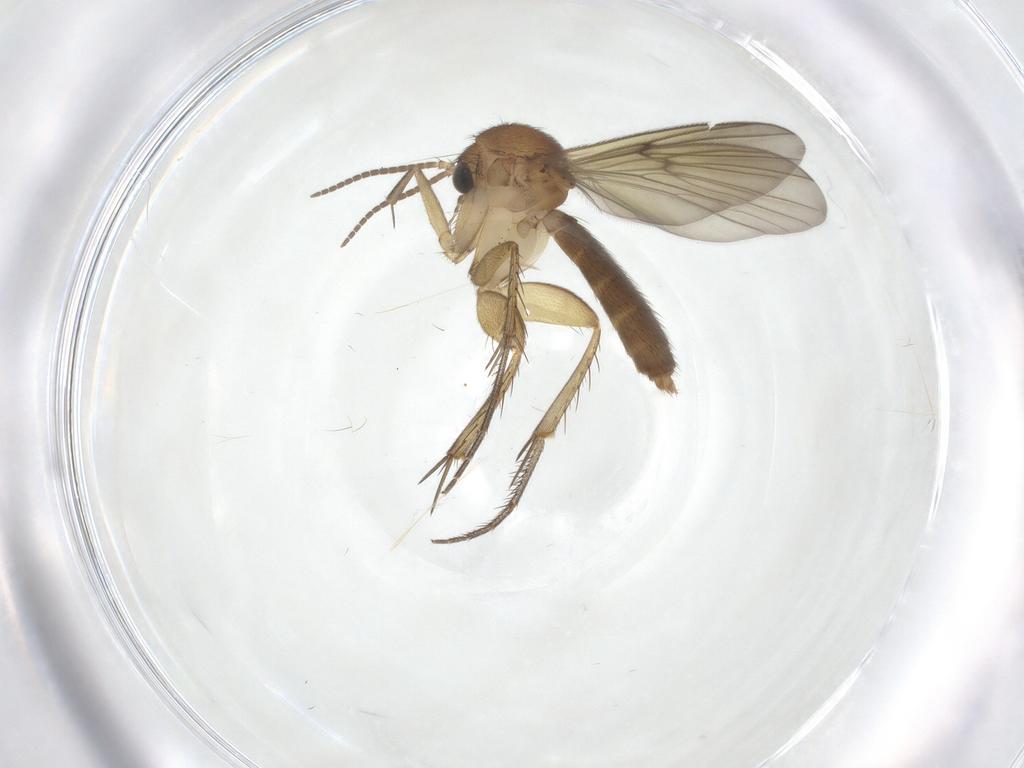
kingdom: Animalia
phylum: Arthropoda
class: Insecta
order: Diptera
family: Mycetophilidae
